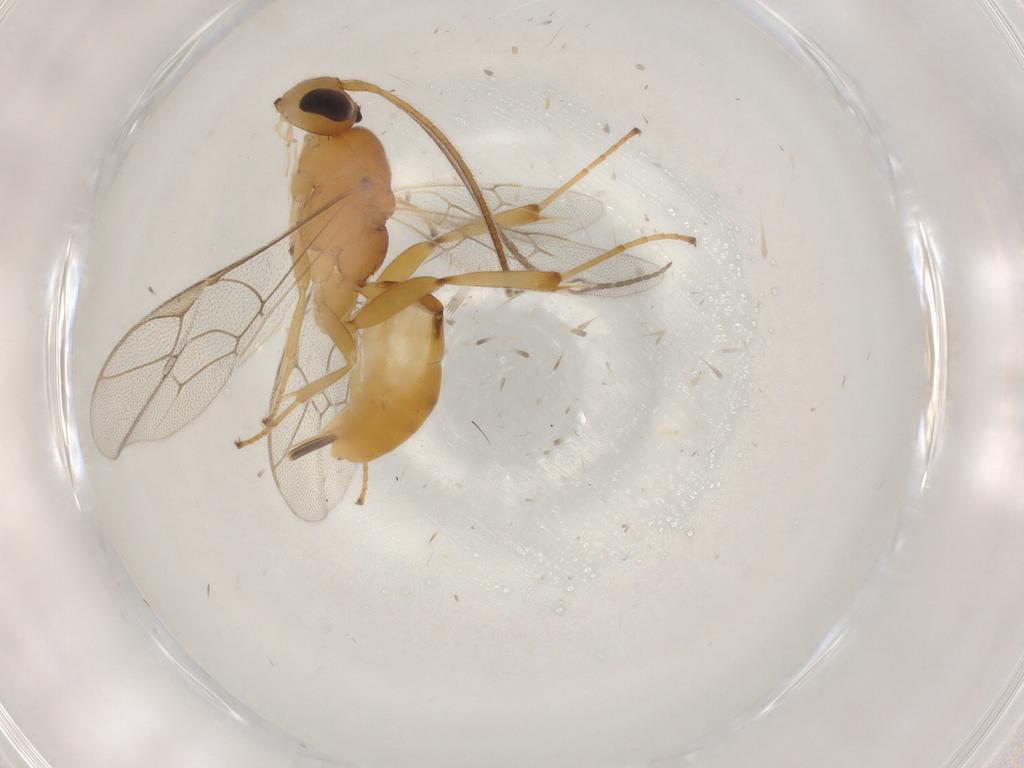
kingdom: Animalia
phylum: Arthropoda
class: Insecta
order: Hymenoptera
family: Ichneumonidae
